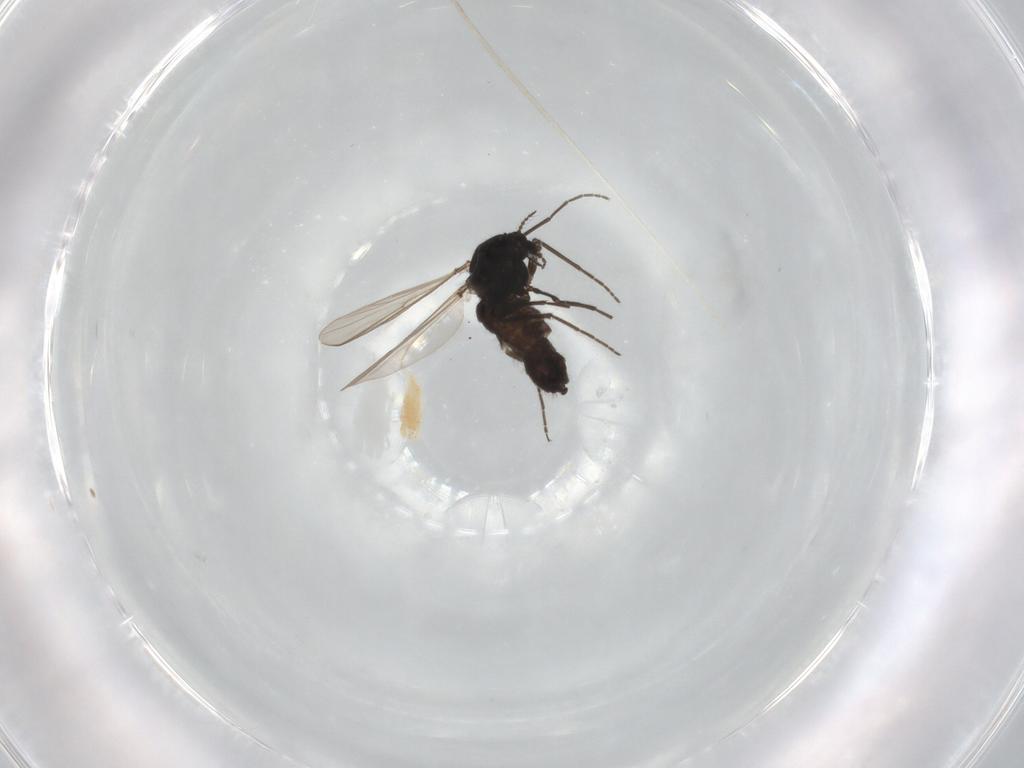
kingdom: Animalia
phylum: Arthropoda
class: Insecta
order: Diptera
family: Chironomidae
